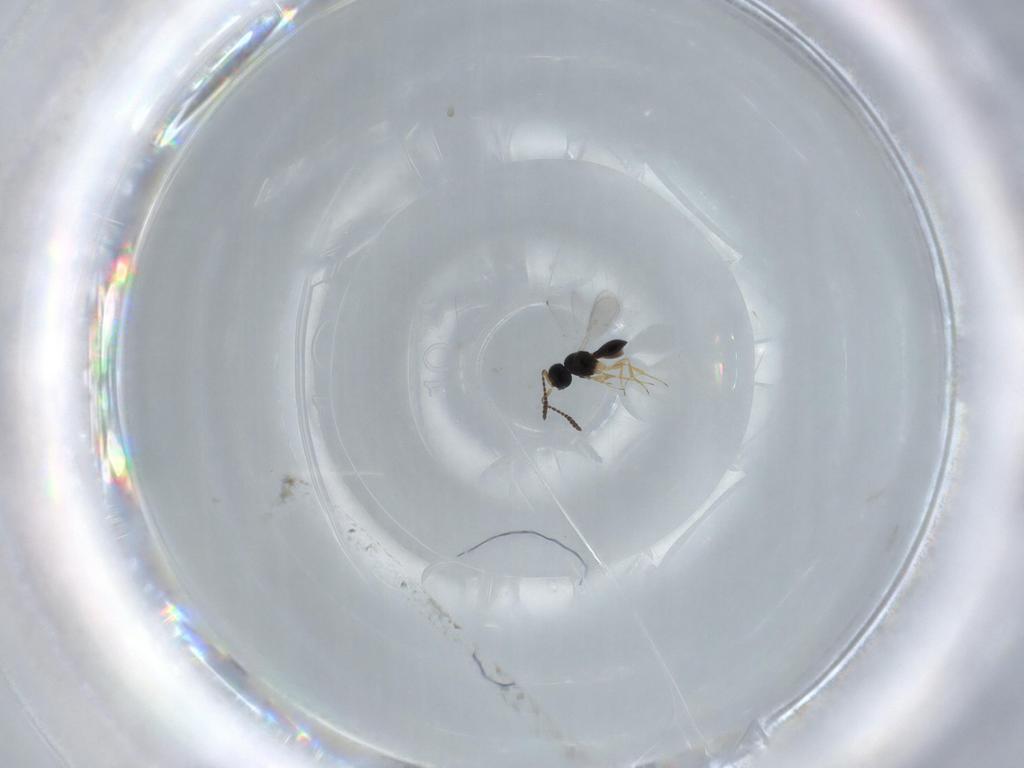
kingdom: Animalia
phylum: Arthropoda
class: Insecta
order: Hymenoptera
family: Scelionidae
